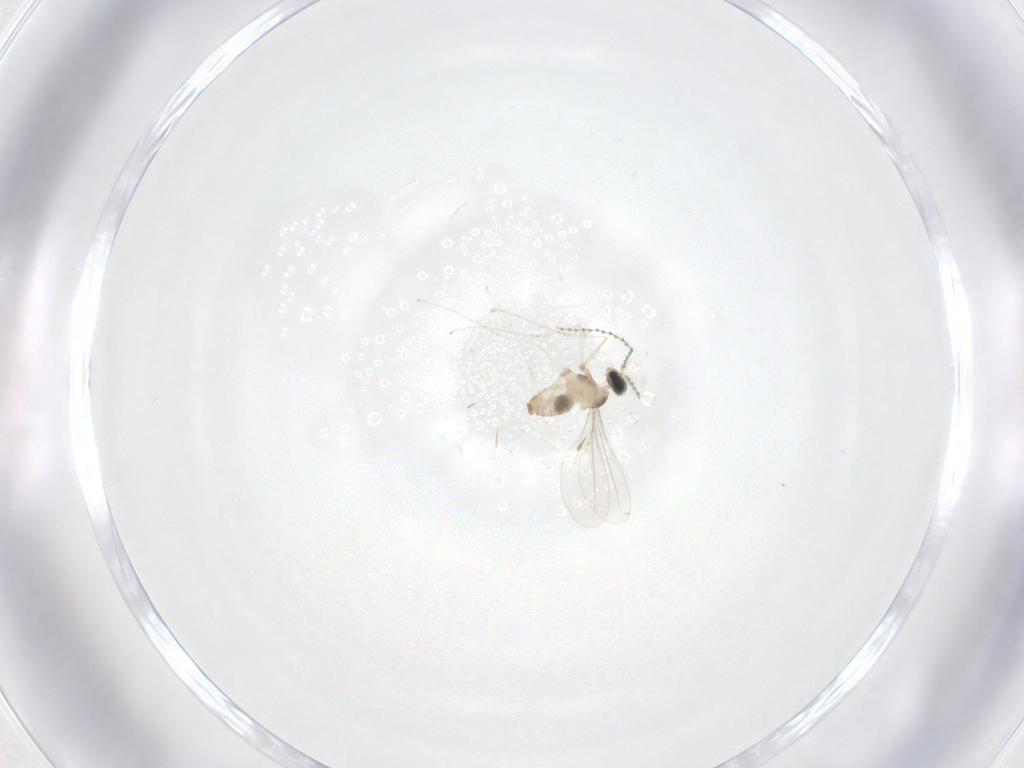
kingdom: Animalia
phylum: Arthropoda
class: Insecta
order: Diptera
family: Cecidomyiidae
